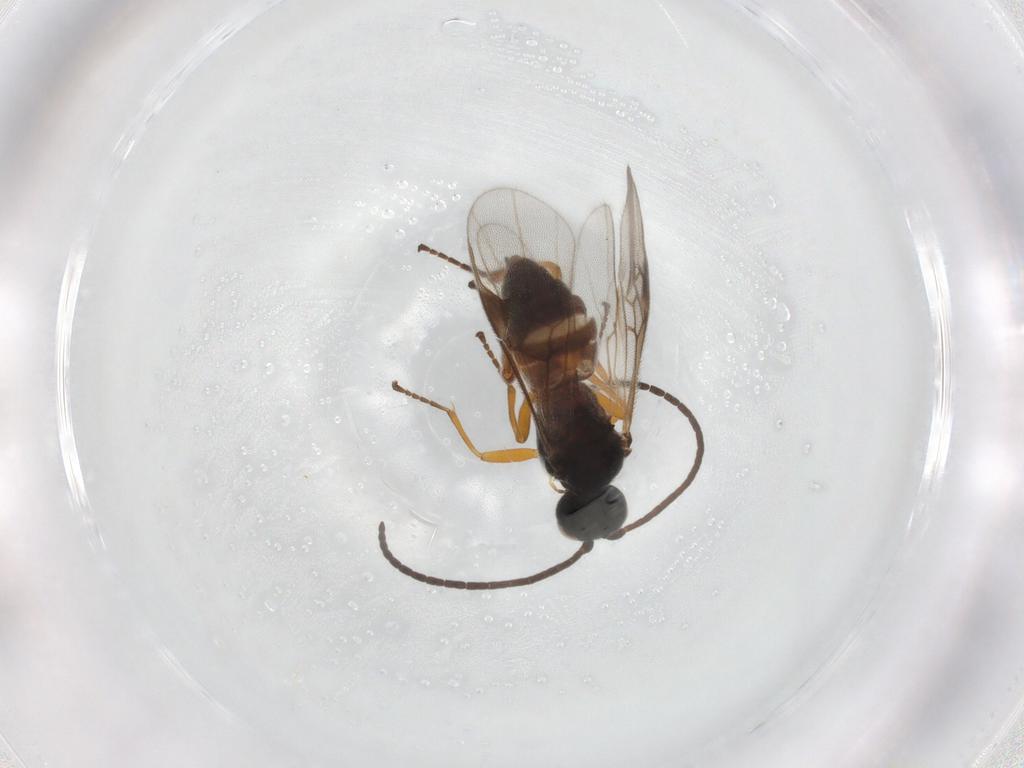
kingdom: Animalia
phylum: Arthropoda
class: Insecta
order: Hymenoptera
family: Braconidae
